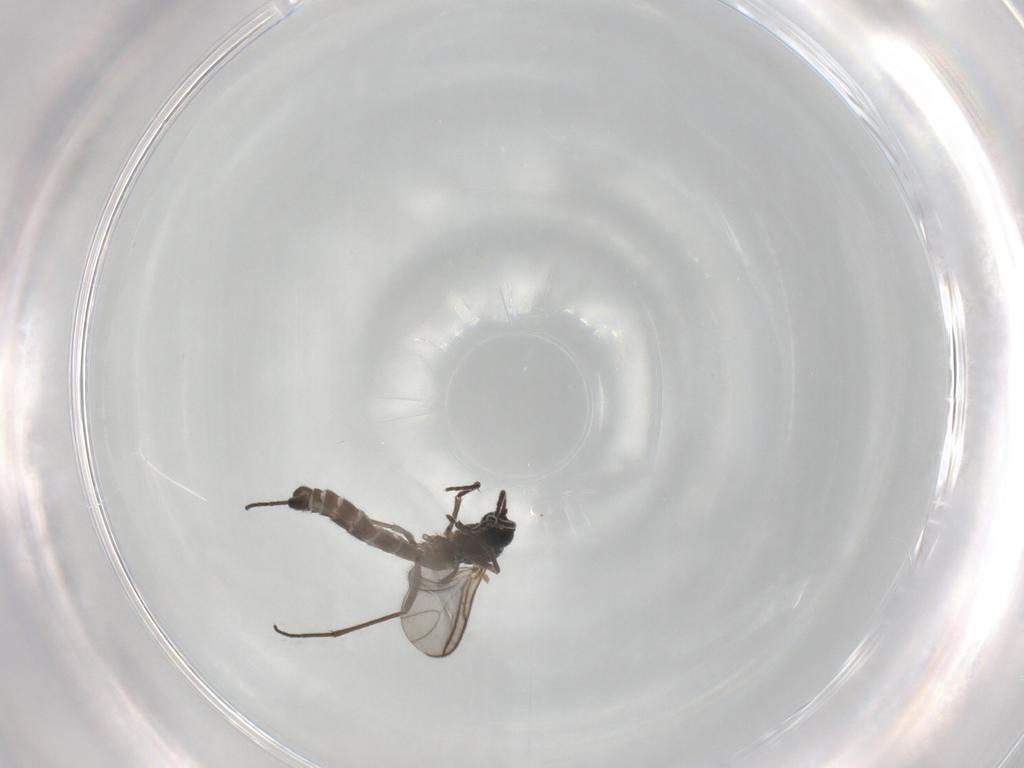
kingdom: Animalia
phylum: Arthropoda
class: Insecta
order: Diptera
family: Sciaridae
